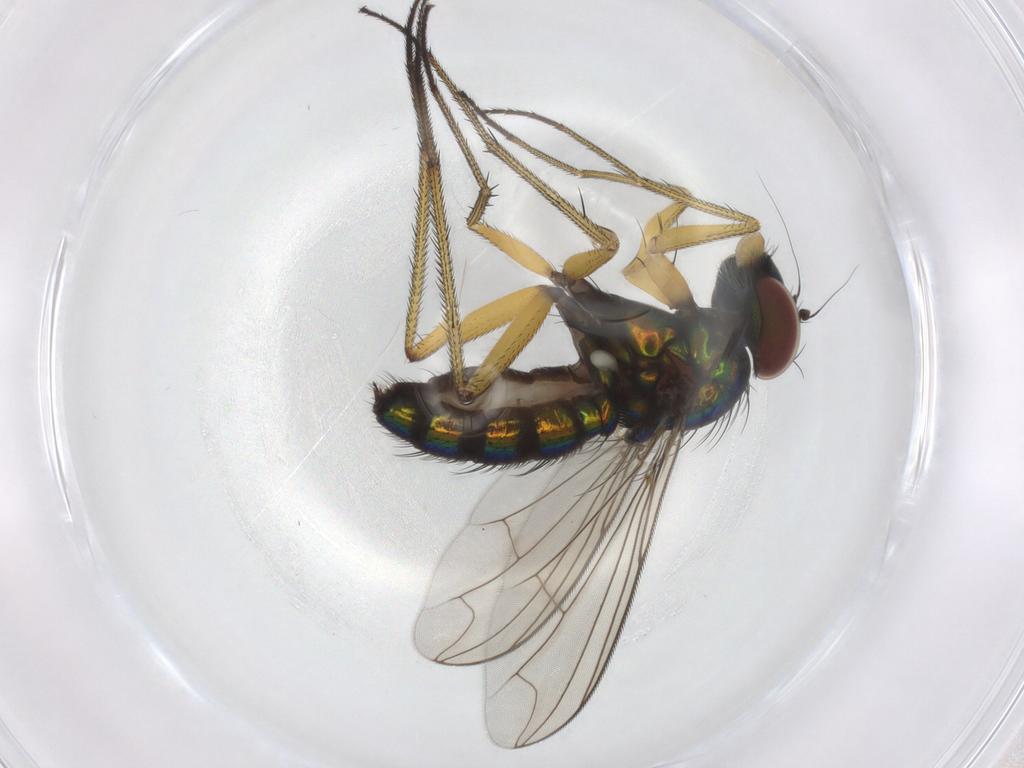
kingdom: Animalia
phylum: Arthropoda
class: Insecta
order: Diptera
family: Dolichopodidae
